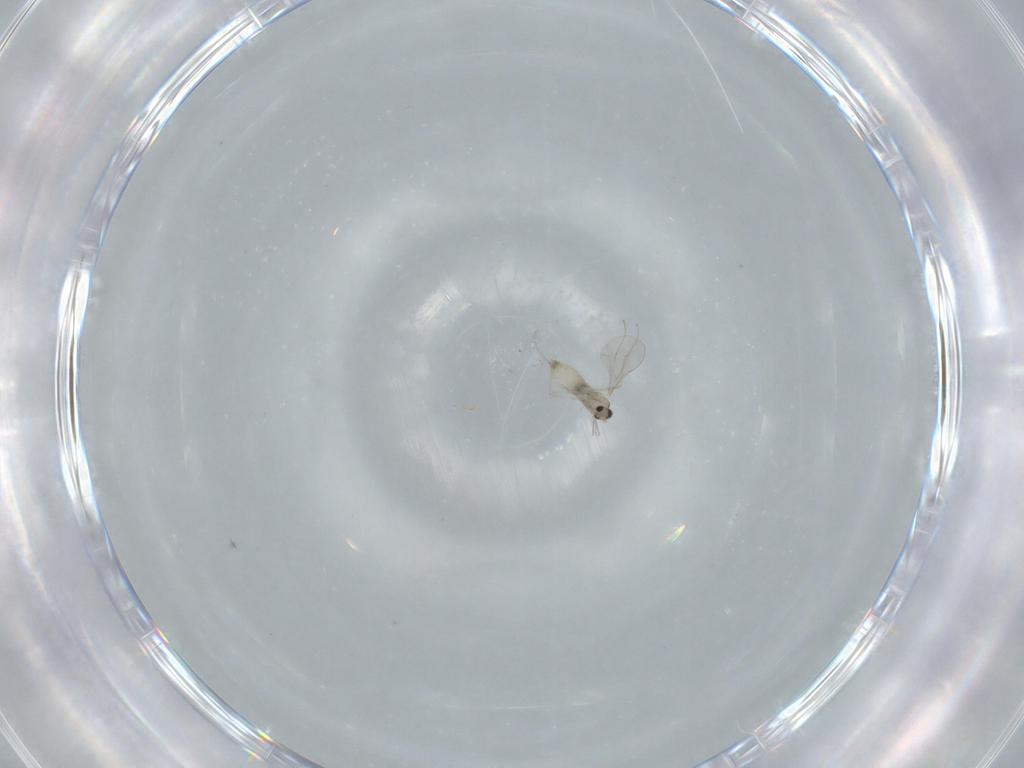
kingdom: Animalia
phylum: Arthropoda
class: Insecta
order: Diptera
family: Cecidomyiidae
